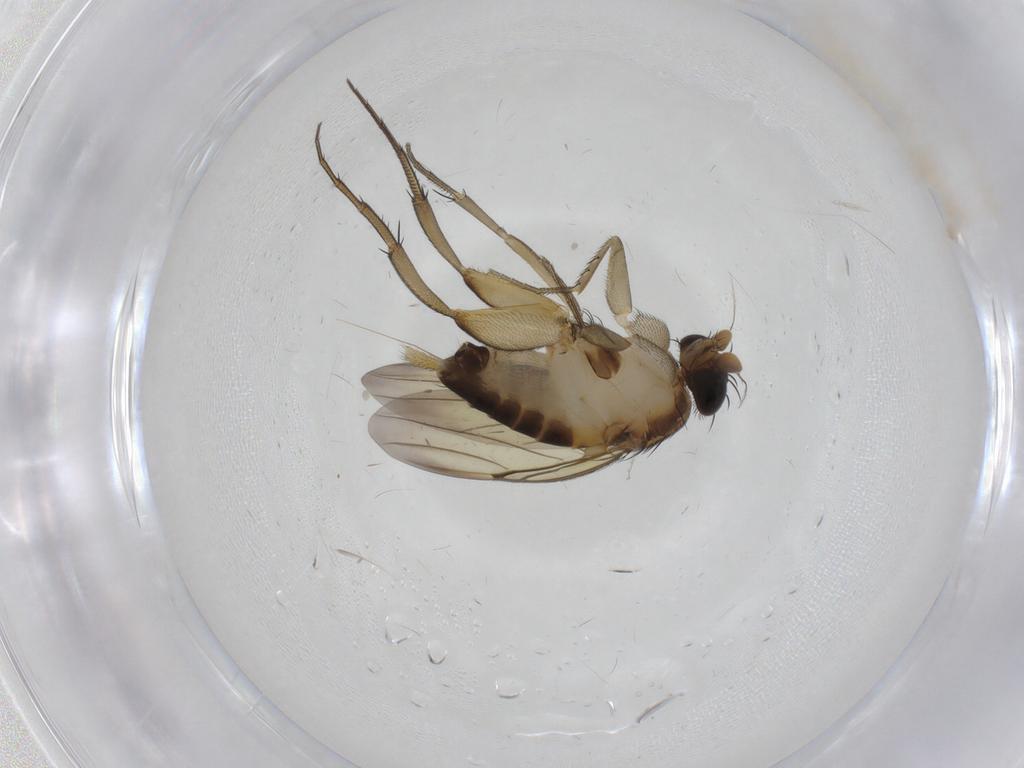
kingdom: Animalia
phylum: Arthropoda
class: Insecta
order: Diptera
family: Phoridae
